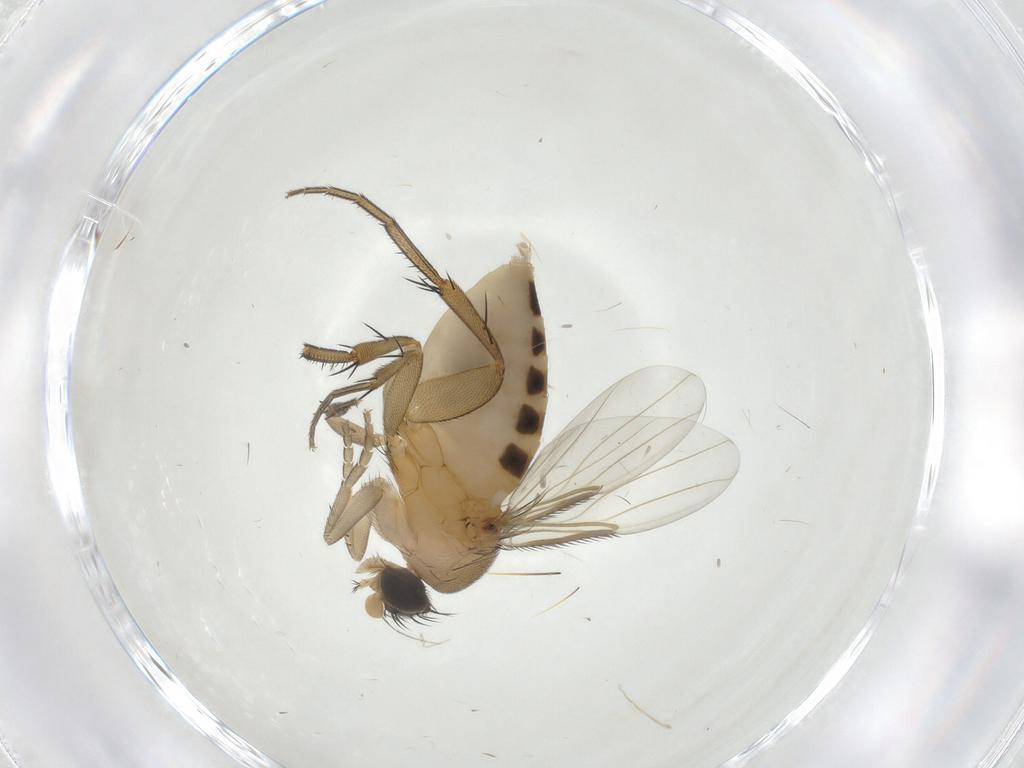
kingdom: Animalia
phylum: Arthropoda
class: Insecta
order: Diptera
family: Phoridae
